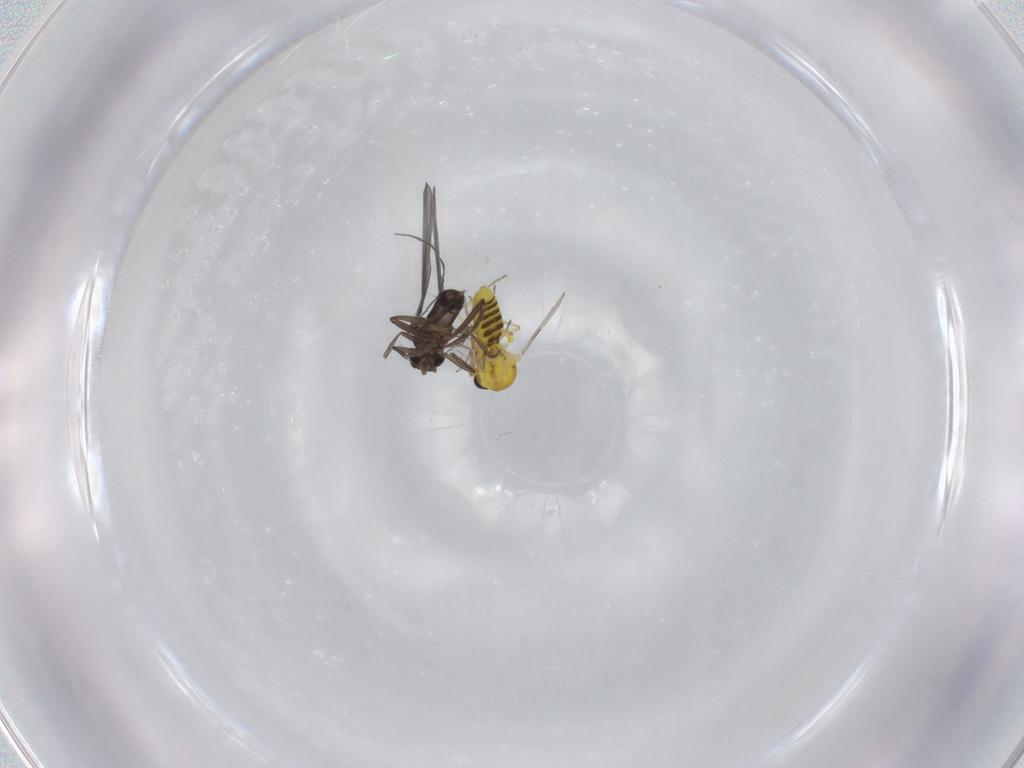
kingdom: Animalia
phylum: Arthropoda
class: Insecta
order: Diptera
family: Ceratopogonidae
